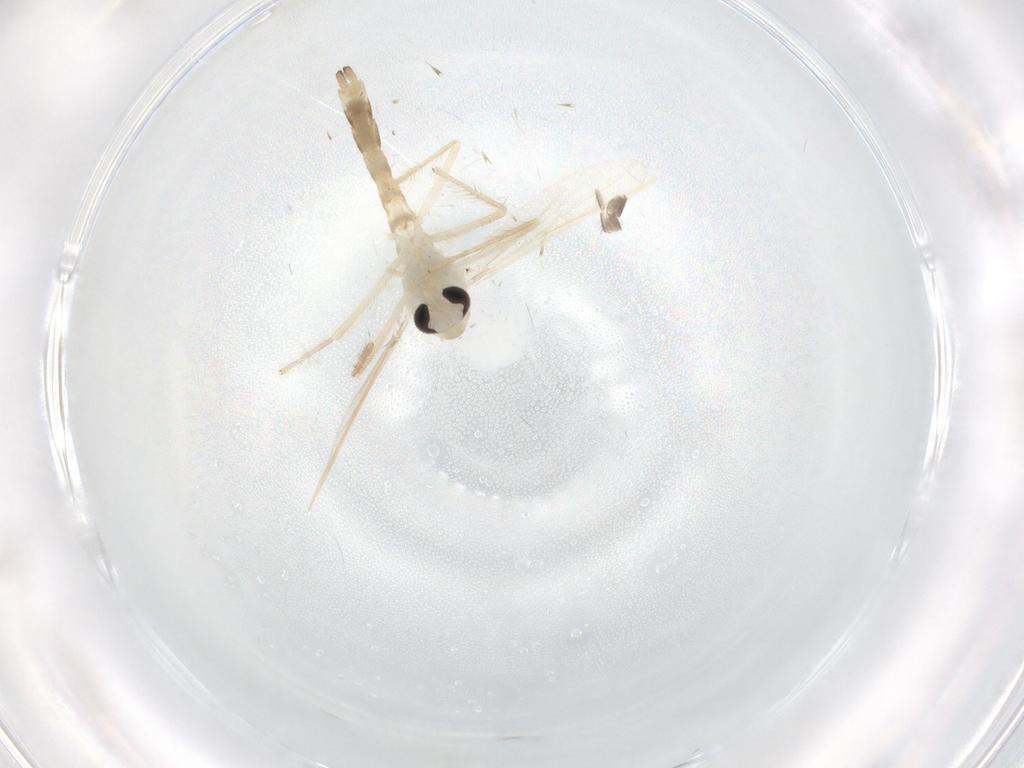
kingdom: Animalia
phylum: Arthropoda
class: Insecta
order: Diptera
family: Chironomidae
